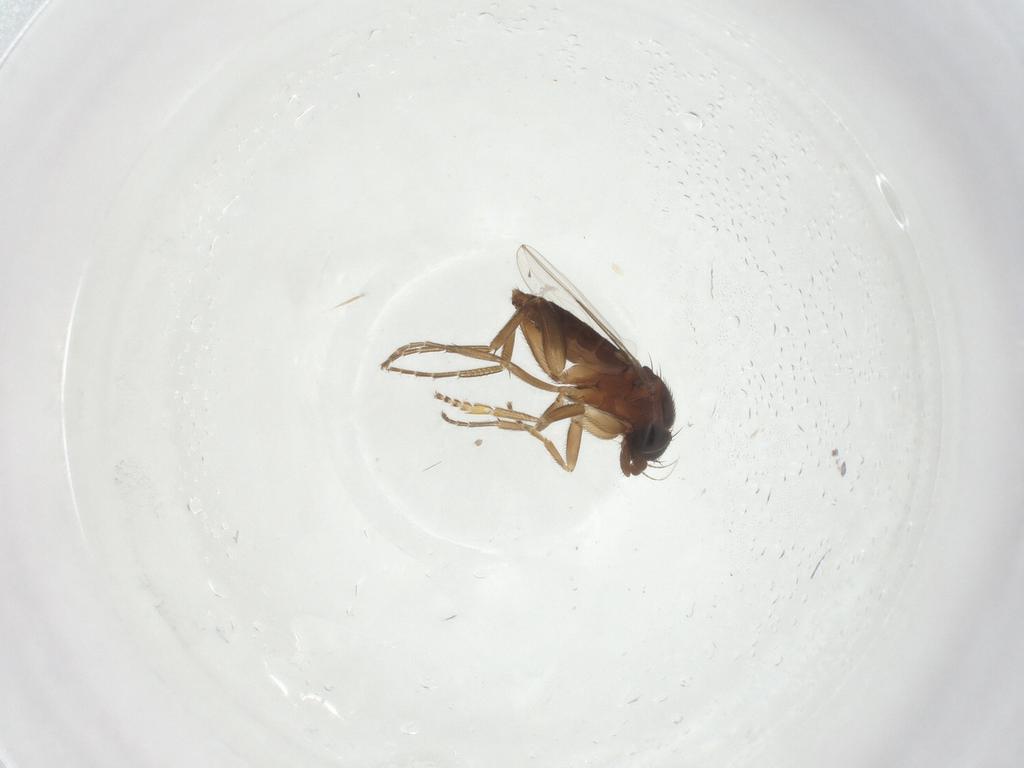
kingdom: Animalia
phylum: Arthropoda
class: Insecta
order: Diptera
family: Phoridae
